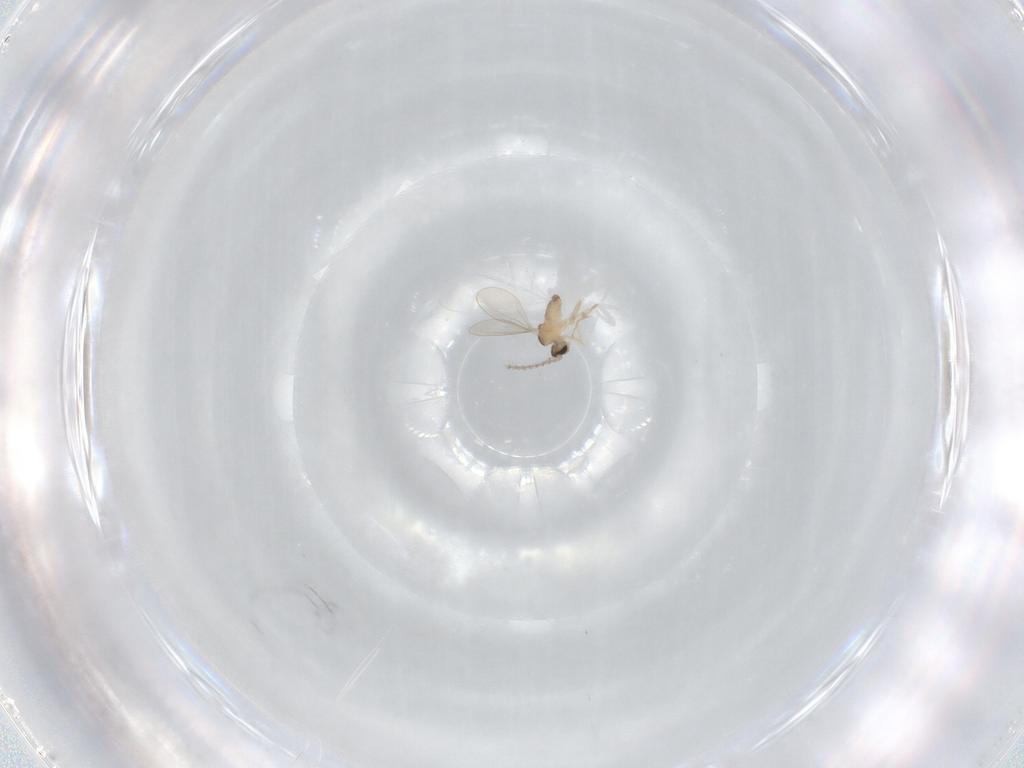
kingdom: Animalia
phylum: Arthropoda
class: Insecta
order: Diptera
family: Cecidomyiidae
